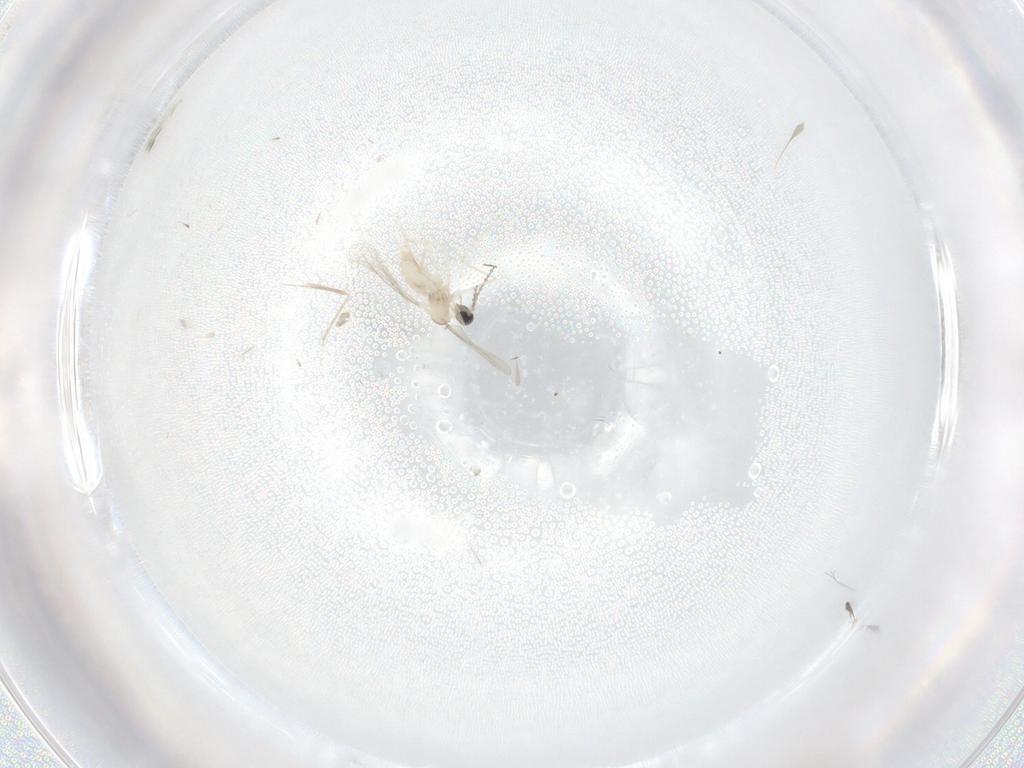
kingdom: Animalia
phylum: Arthropoda
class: Insecta
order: Diptera
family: Cecidomyiidae
